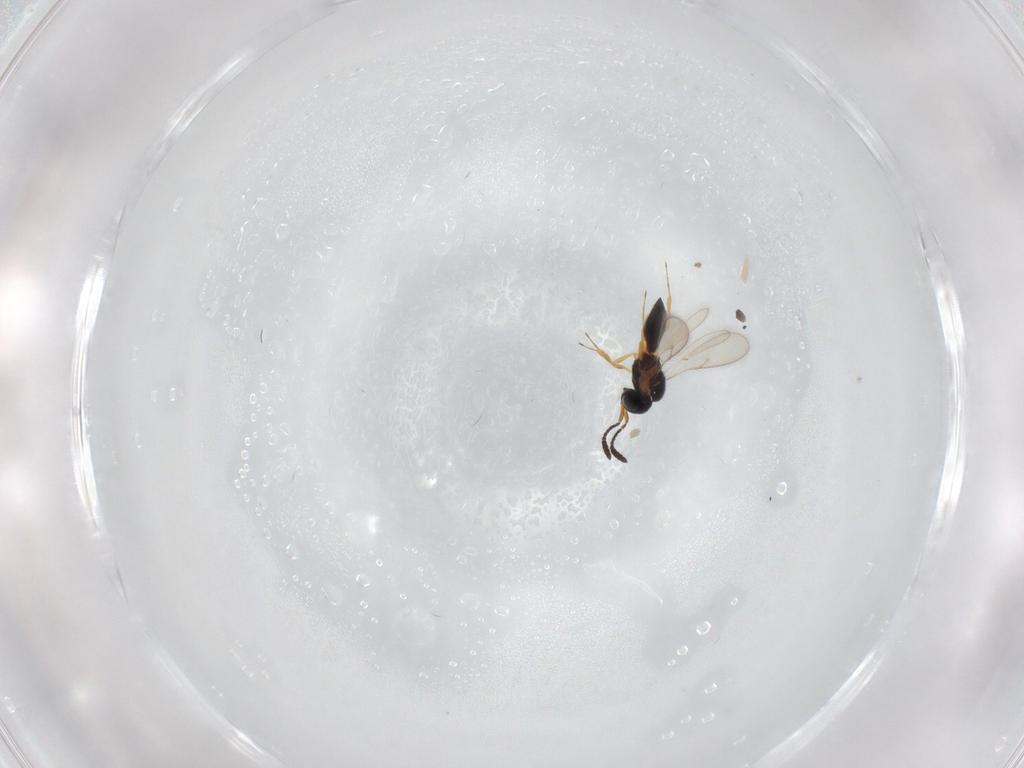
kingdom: Animalia
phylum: Arthropoda
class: Insecta
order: Hymenoptera
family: Scelionidae
